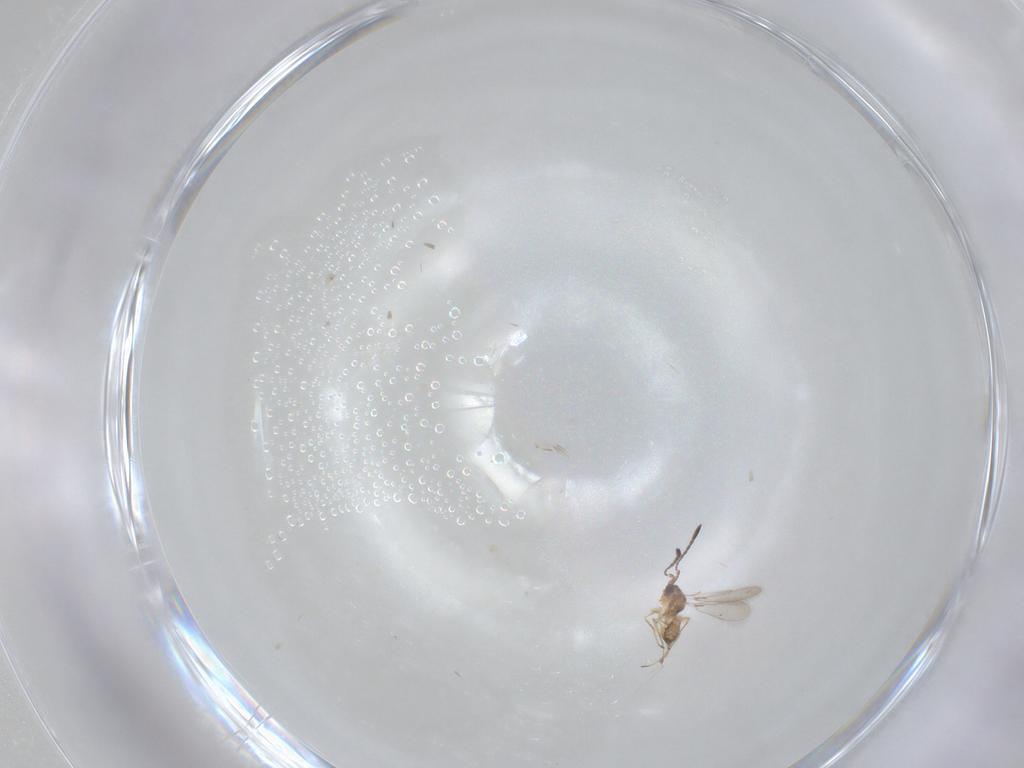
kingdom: Animalia
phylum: Arthropoda
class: Insecta
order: Hymenoptera
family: Mymaridae
